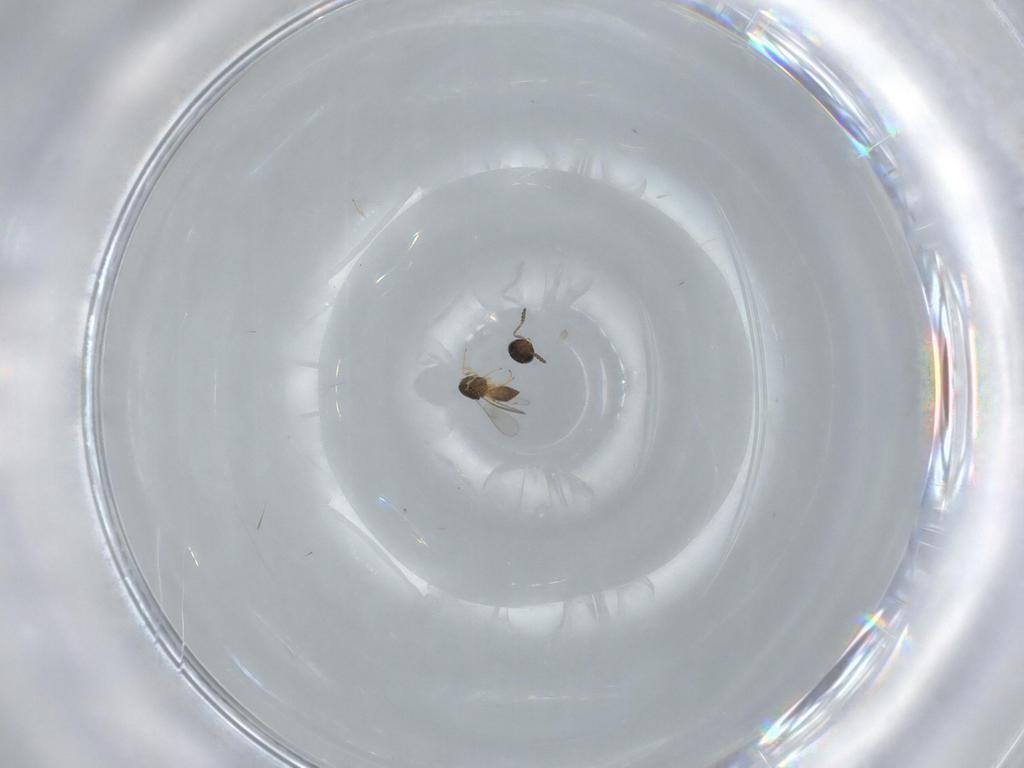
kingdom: Animalia
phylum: Arthropoda
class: Insecta
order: Hymenoptera
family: Scelionidae
